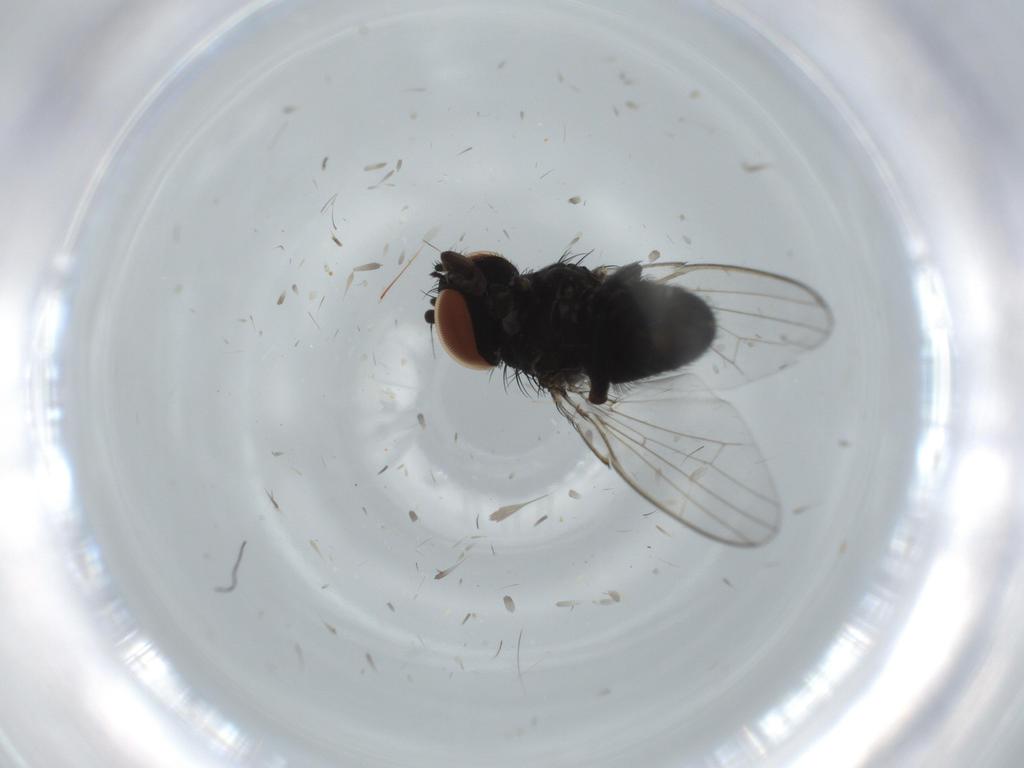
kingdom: Animalia
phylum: Arthropoda
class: Insecta
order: Diptera
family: Milichiidae
